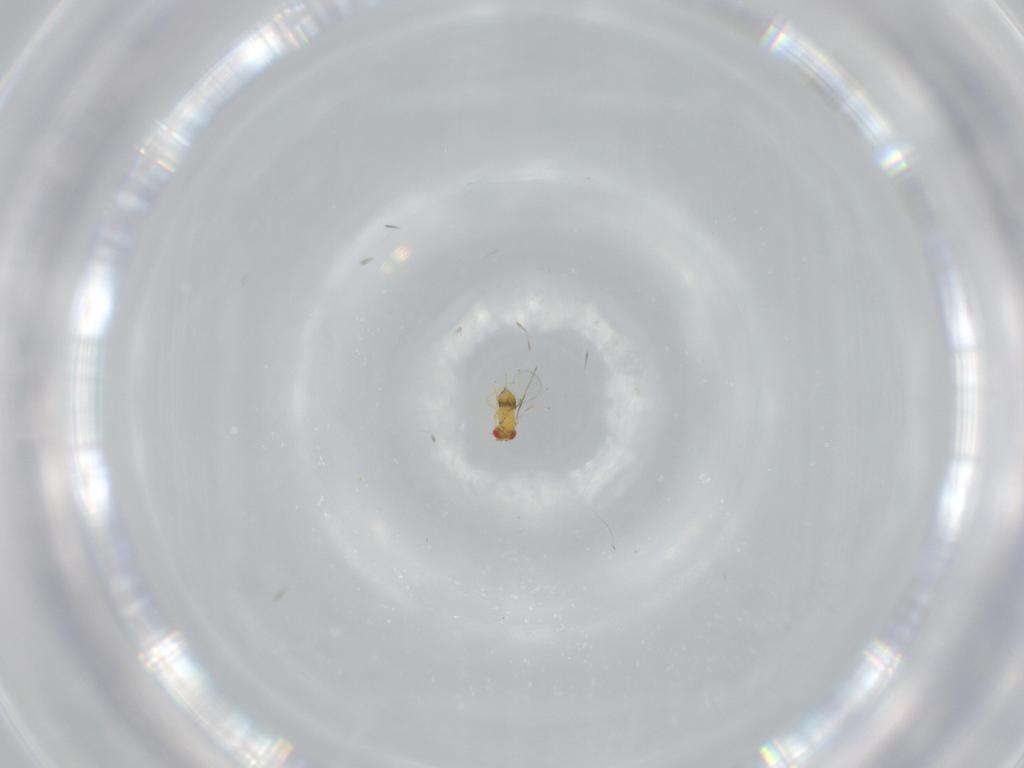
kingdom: Animalia
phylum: Arthropoda
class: Insecta
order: Hymenoptera
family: Trichogrammatidae
